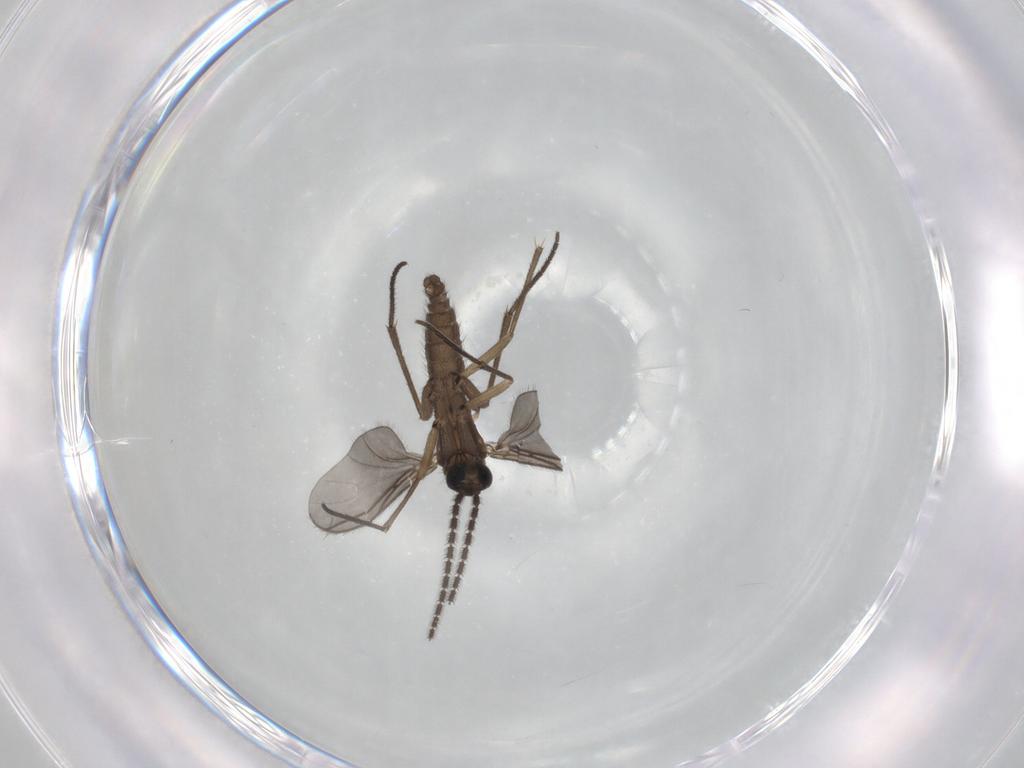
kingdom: Animalia
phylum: Arthropoda
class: Insecta
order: Diptera
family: Sciaridae
